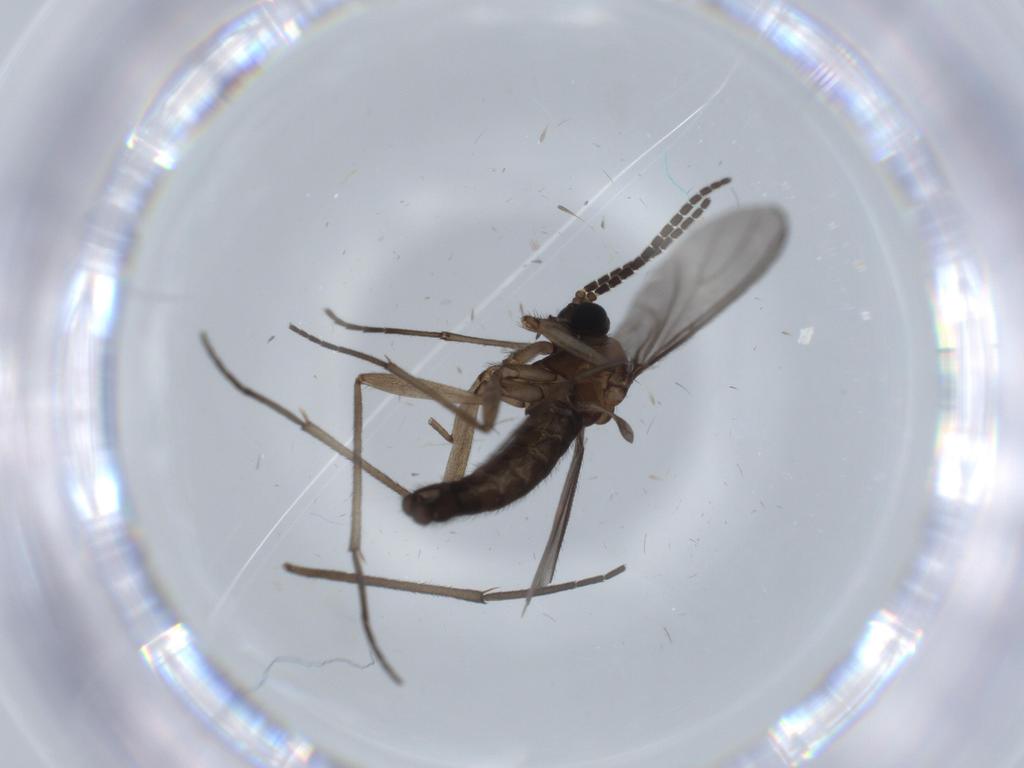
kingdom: Animalia
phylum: Arthropoda
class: Insecta
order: Diptera
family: Sciaridae
